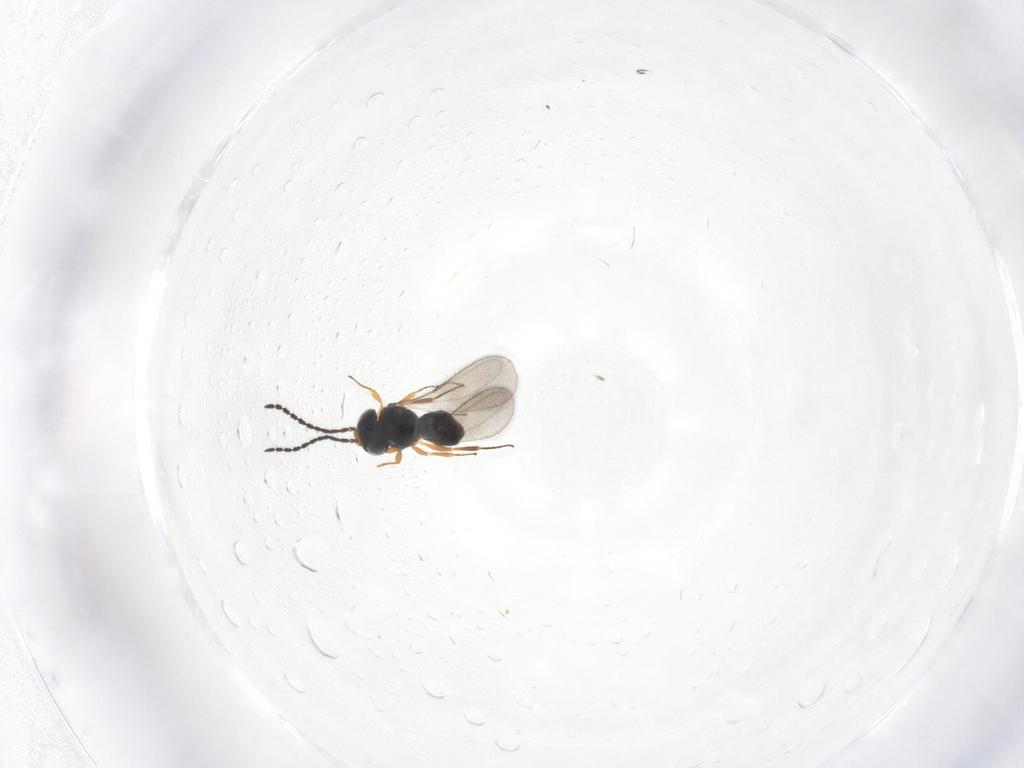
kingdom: Animalia
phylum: Arthropoda
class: Insecta
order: Hymenoptera
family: Scelionidae
